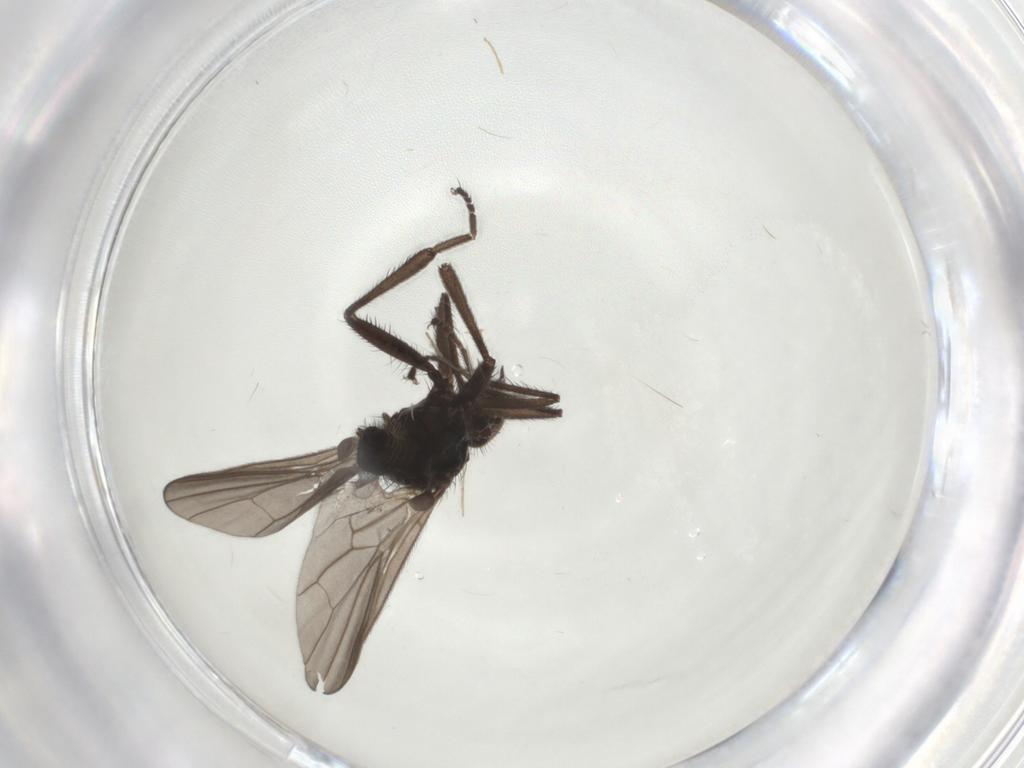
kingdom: Animalia
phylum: Arthropoda
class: Insecta
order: Diptera
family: Hybotidae
